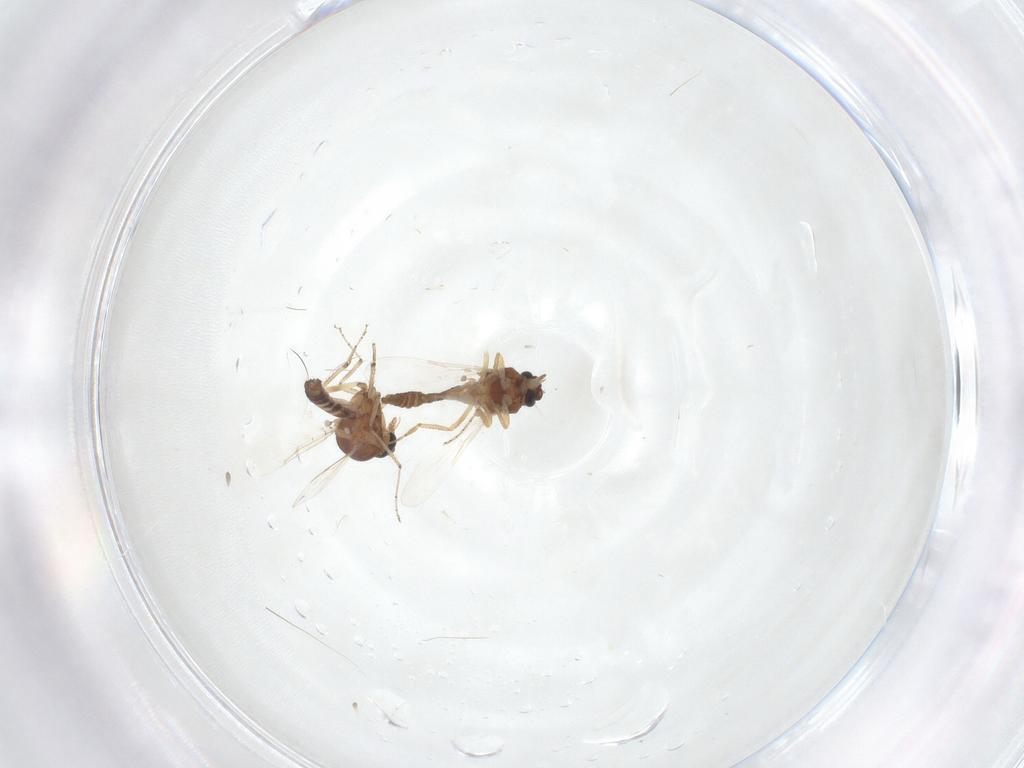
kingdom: Animalia
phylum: Arthropoda
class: Insecta
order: Diptera
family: Ceratopogonidae
